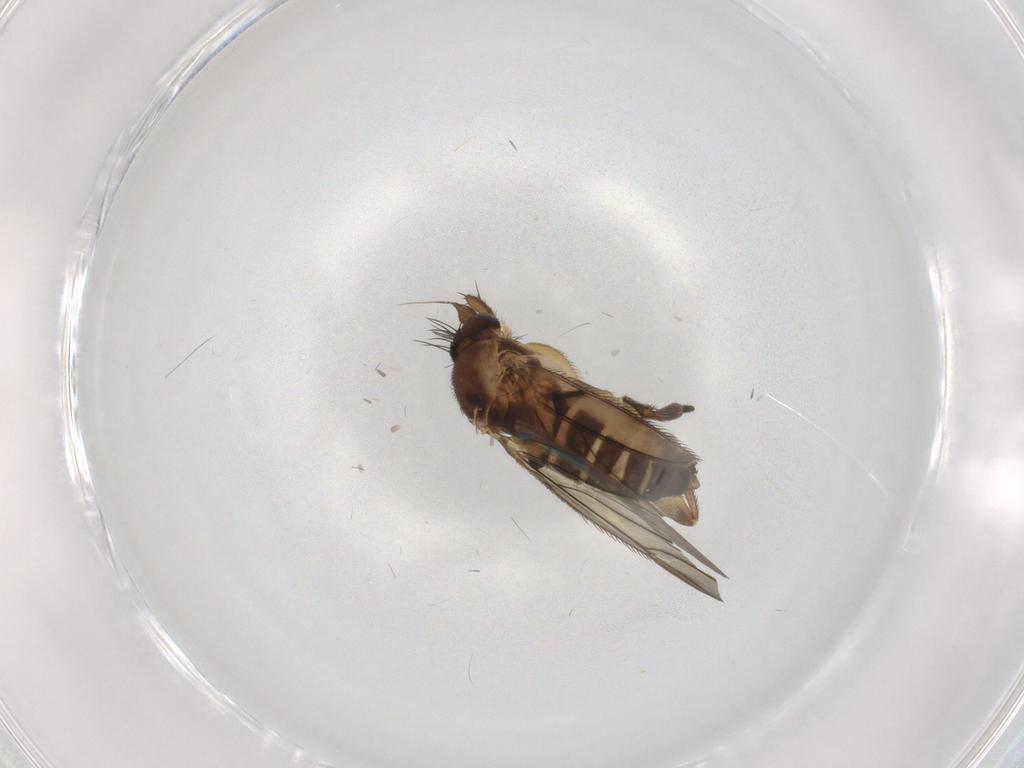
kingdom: Animalia
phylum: Arthropoda
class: Insecta
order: Diptera
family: Phoridae
